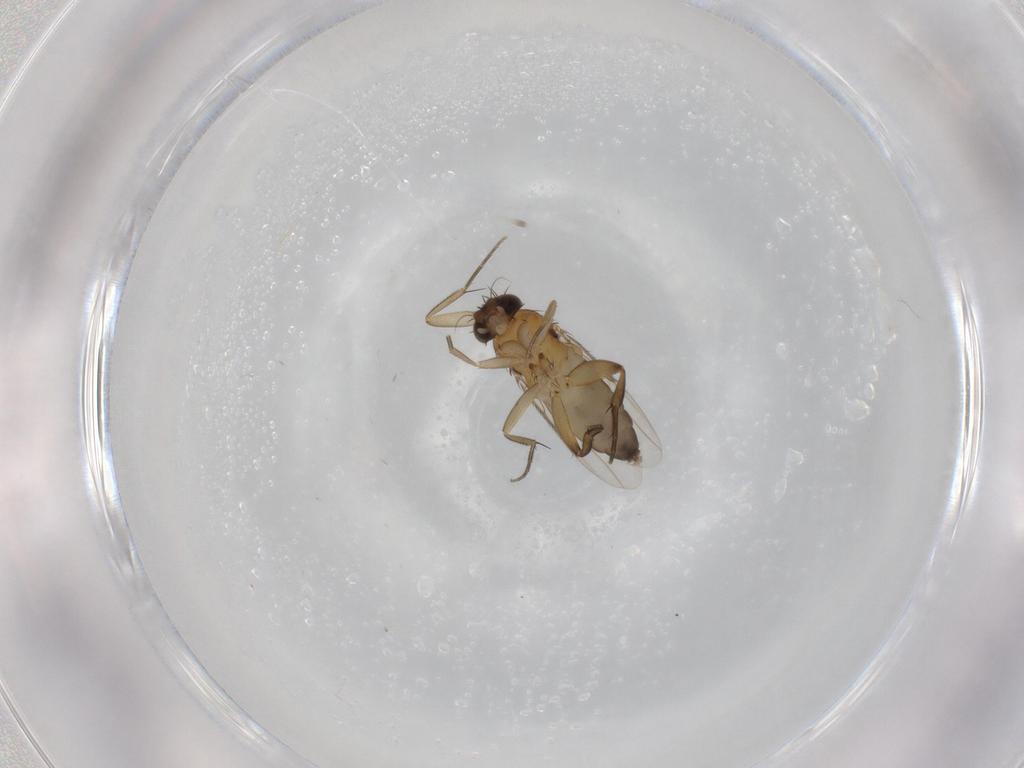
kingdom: Animalia
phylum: Arthropoda
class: Insecta
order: Diptera
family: Phoridae
